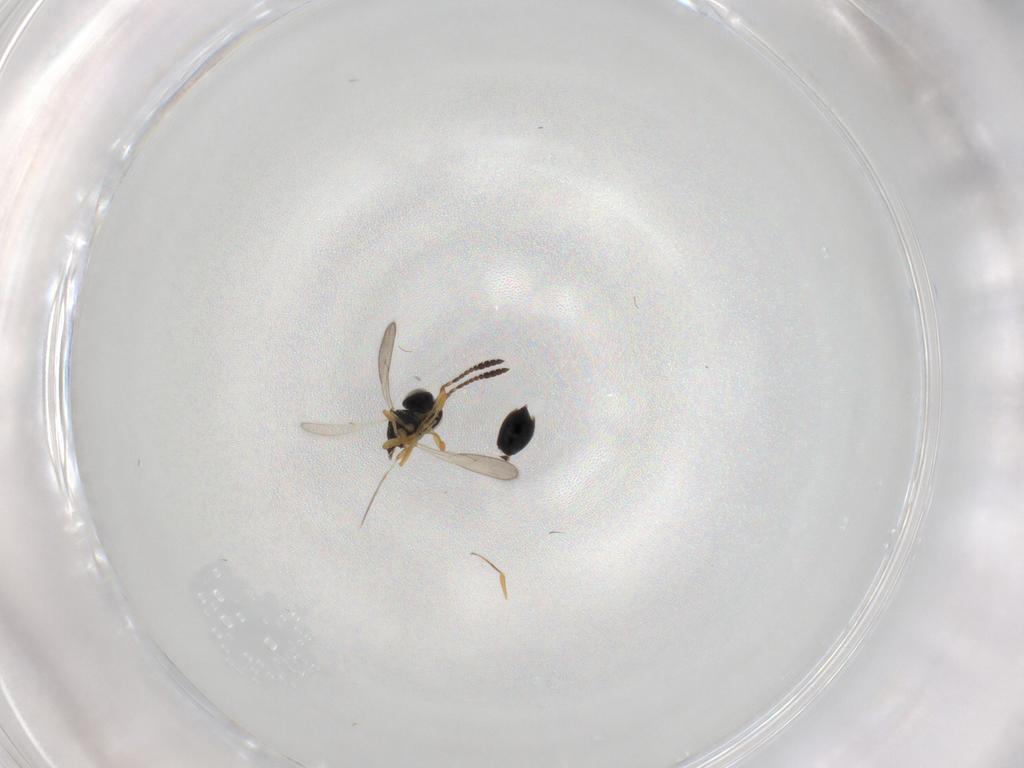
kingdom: Animalia
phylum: Arthropoda
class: Insecta
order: Hymenoptera
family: Scelionidae
